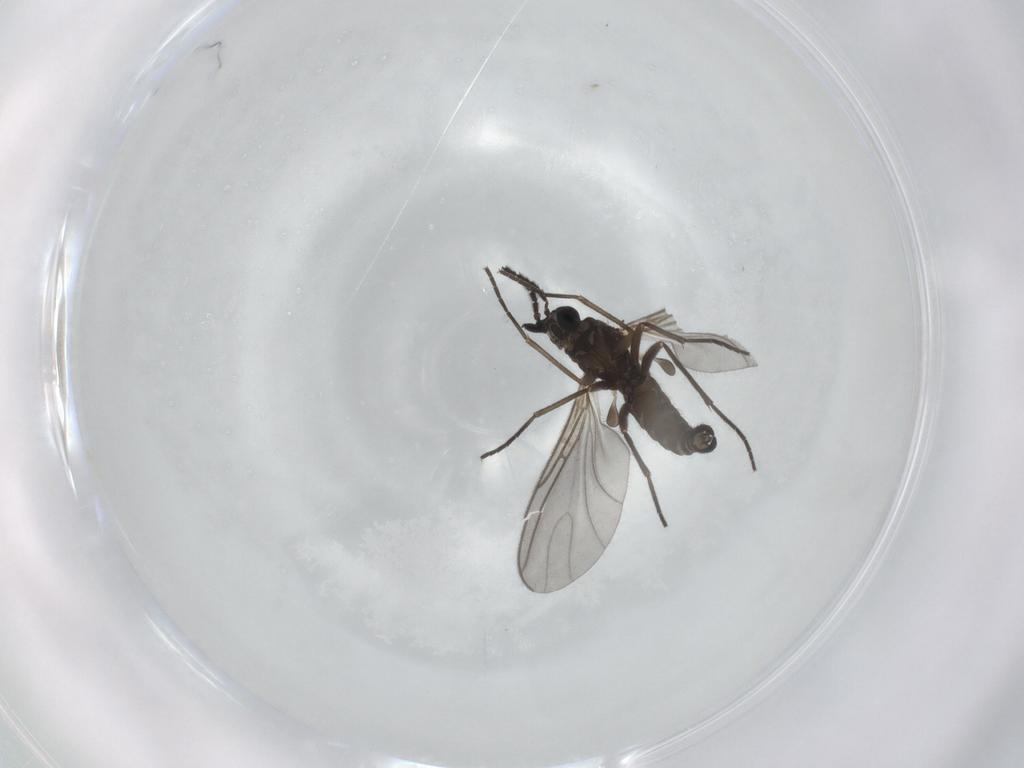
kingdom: Animalia
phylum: Arthropoda
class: Insecta
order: Diptera
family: Sciaridae
